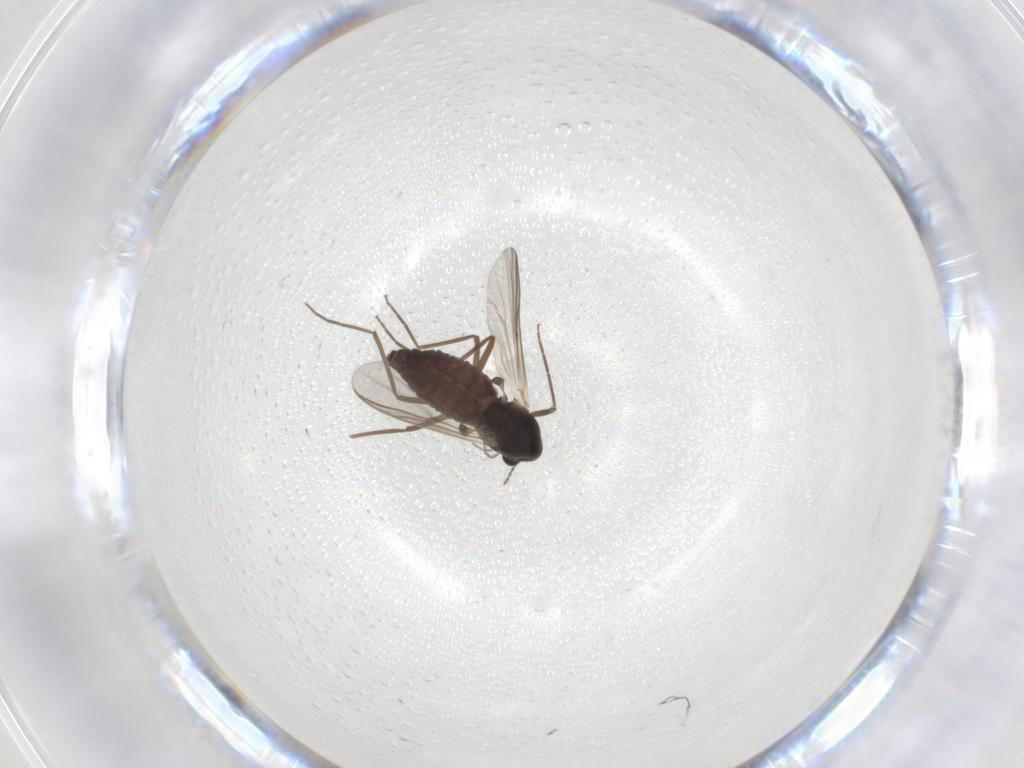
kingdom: Animalia
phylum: Arthropoda
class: Insecta
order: Diptera
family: Chironomidae
